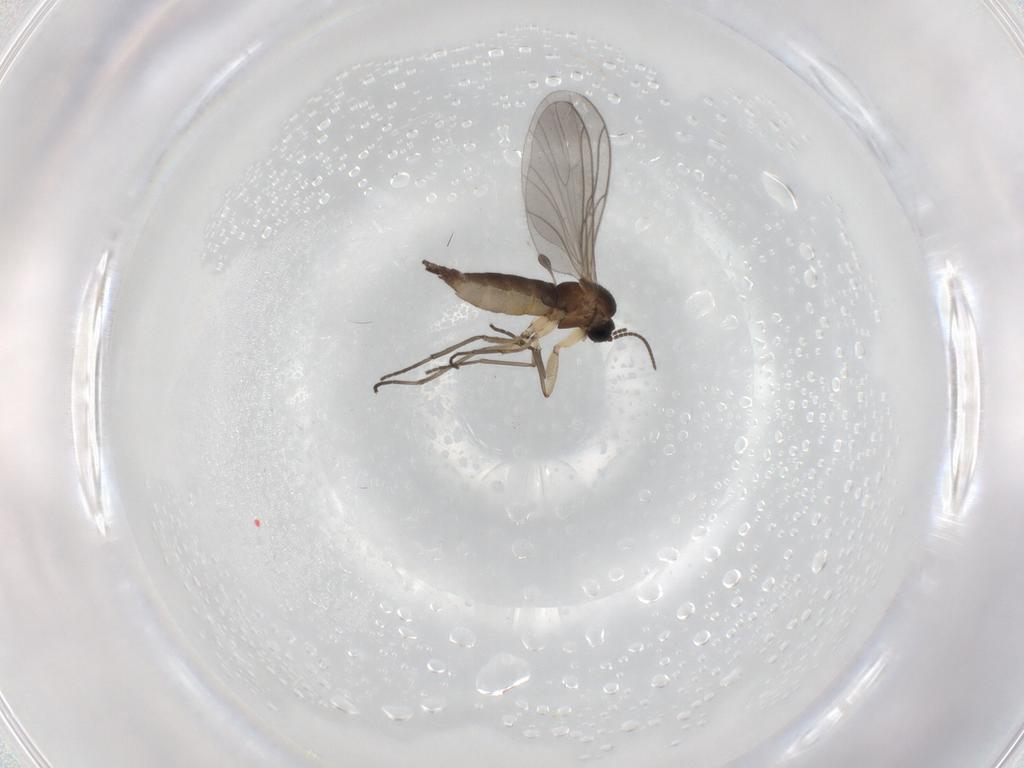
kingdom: Animalia
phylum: Arthropoda
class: Insecta
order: Diptera
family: Sciaridae
